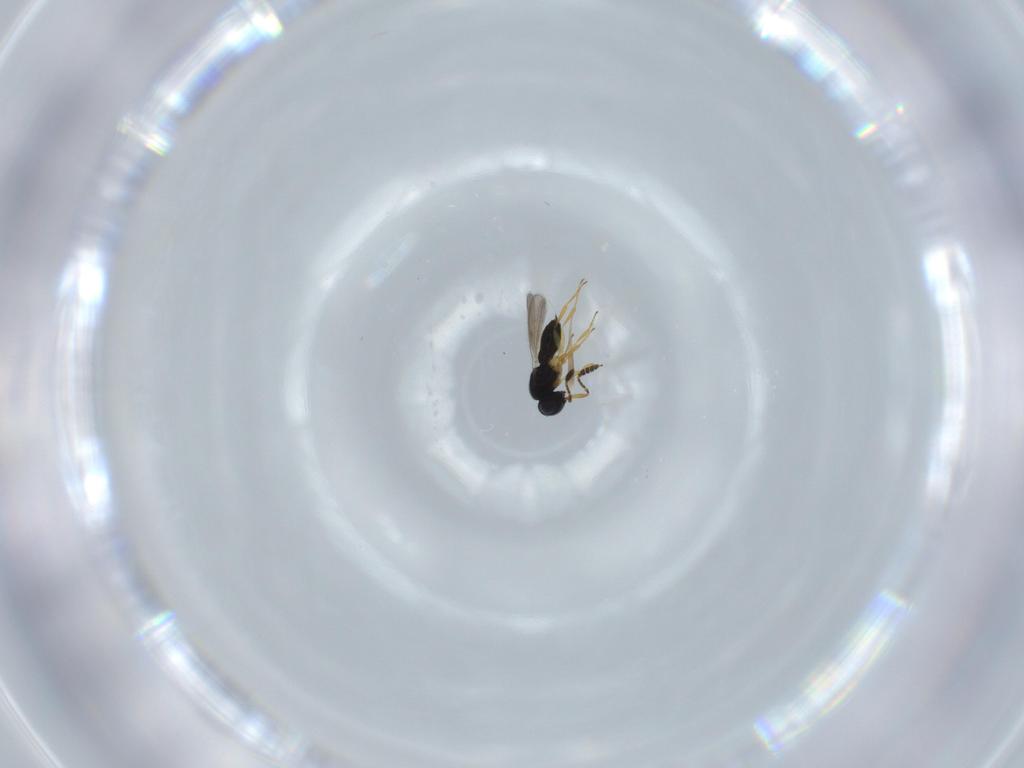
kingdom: Animalia
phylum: Arthropoda
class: Insecta
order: Hymenoptera
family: Scelionidae
